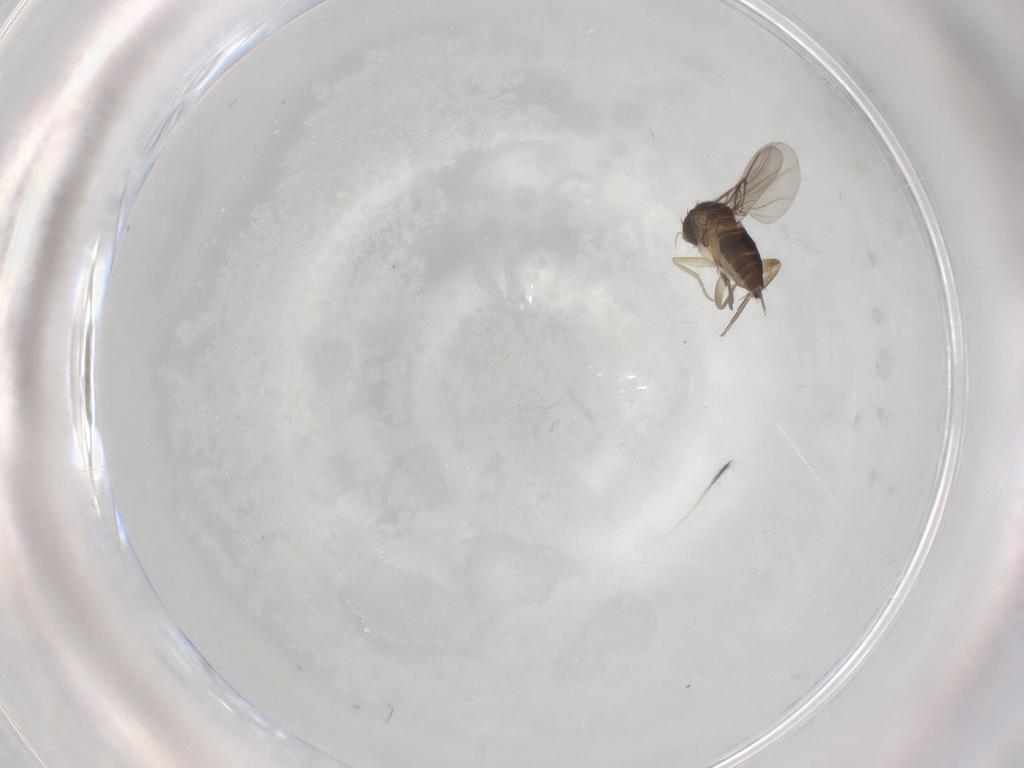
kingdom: Animalia
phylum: Arthropoda
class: Insecta
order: Diptera
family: Phoridae
